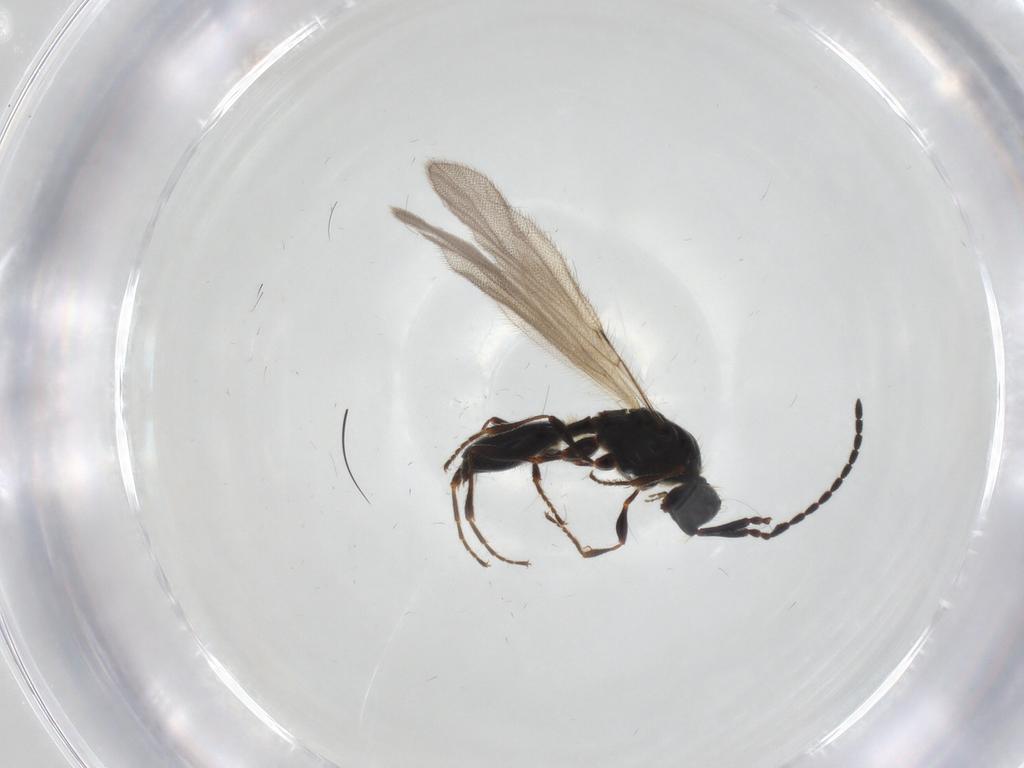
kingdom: Animalia
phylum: Arthropoda
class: Insecta
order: Hymenoptera
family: Diapriidae
